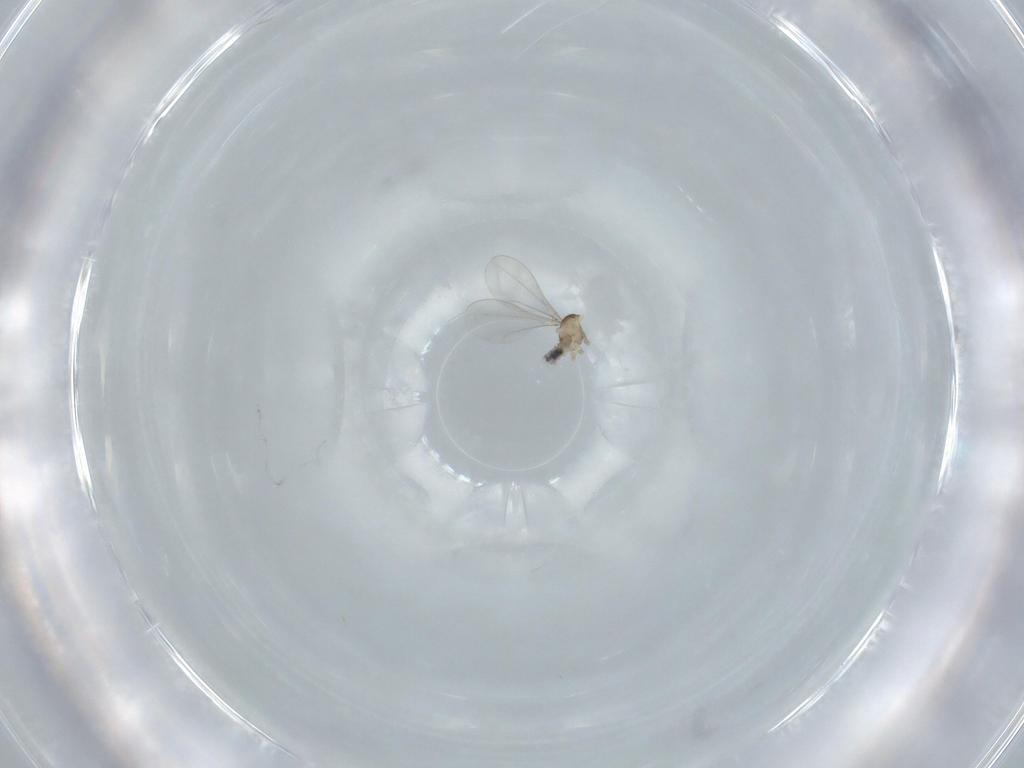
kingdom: Animalia
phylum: Arthropoda
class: Insecta
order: Diptera
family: Cecidomyiidae
